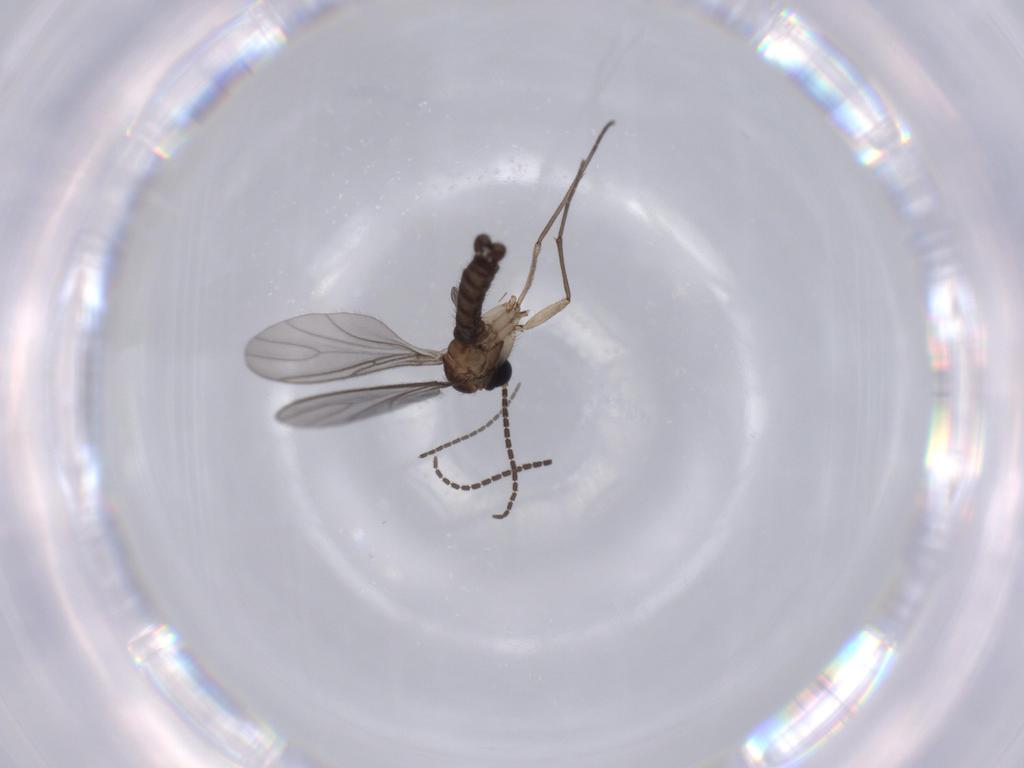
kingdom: Animalia
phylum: Arthropoda
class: Insecta
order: Diptera
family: Sciaridae
